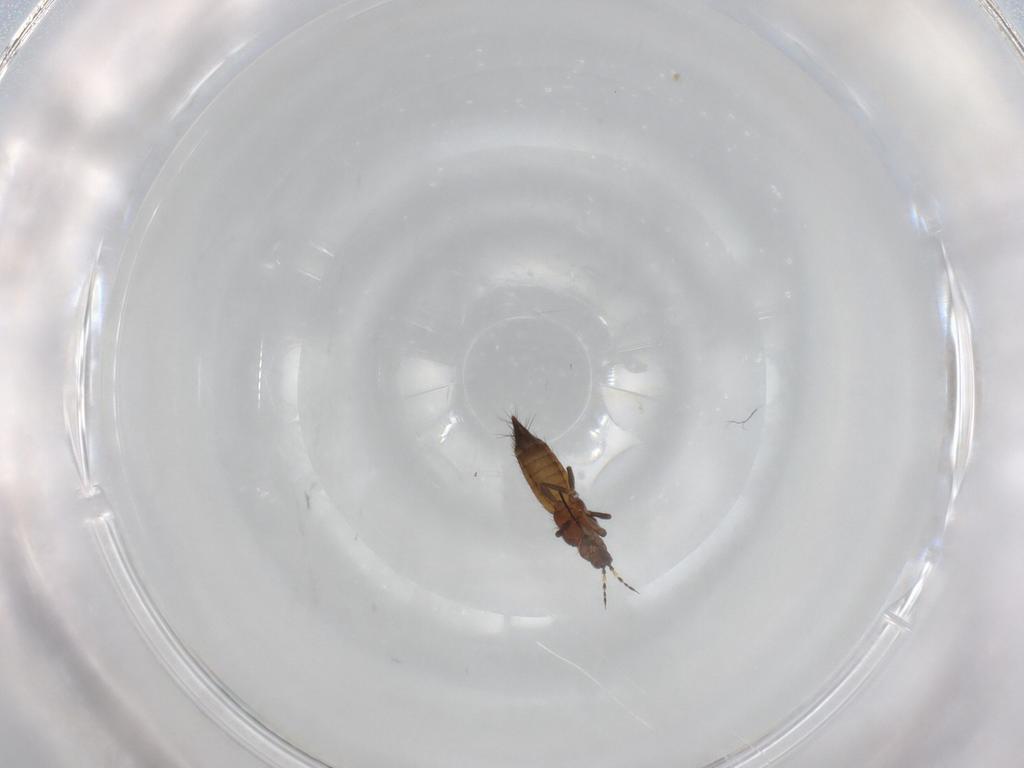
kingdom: Animalia
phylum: Arthropoda
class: Insecta
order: Thysanoptera
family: Thripidae
